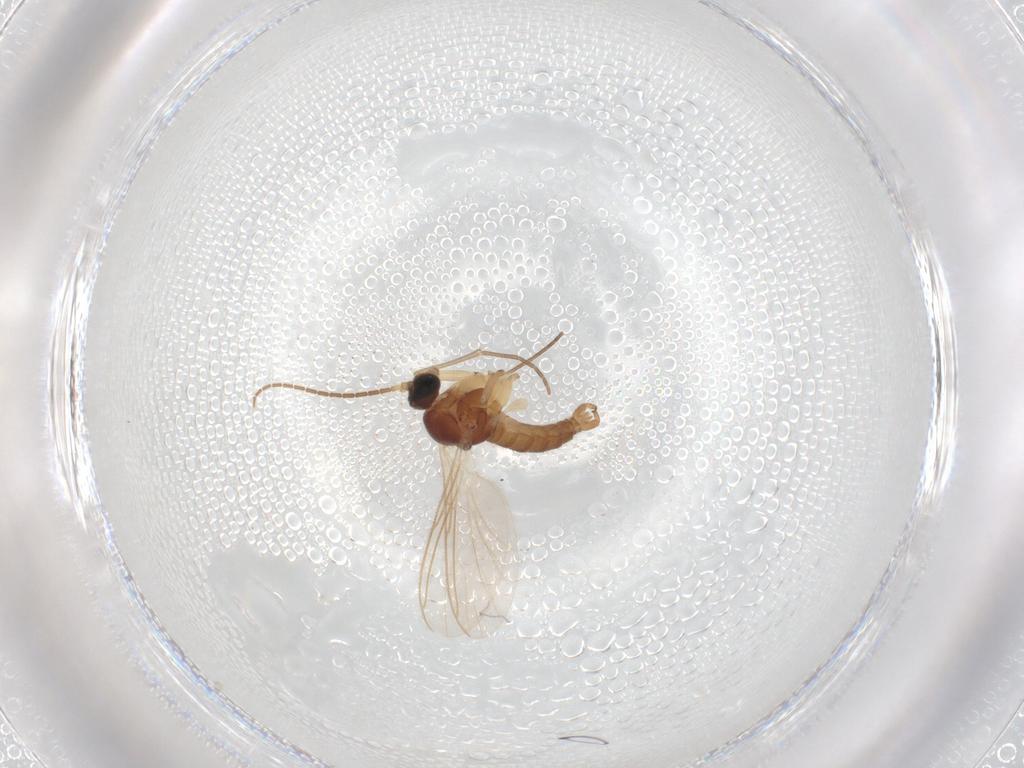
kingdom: Animalia
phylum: Arthropoda
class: Insecta
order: Diptera
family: Sciaridae
